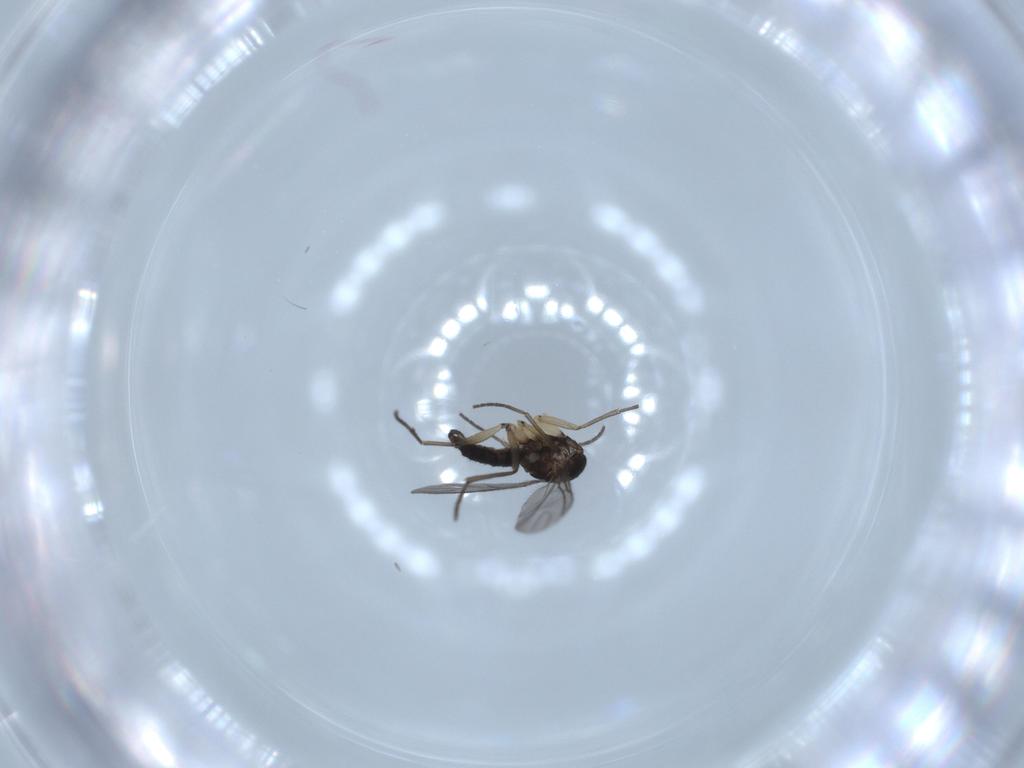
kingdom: Animalia
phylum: Arthropoda
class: Insecta
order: Diptera
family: Sciaridae
